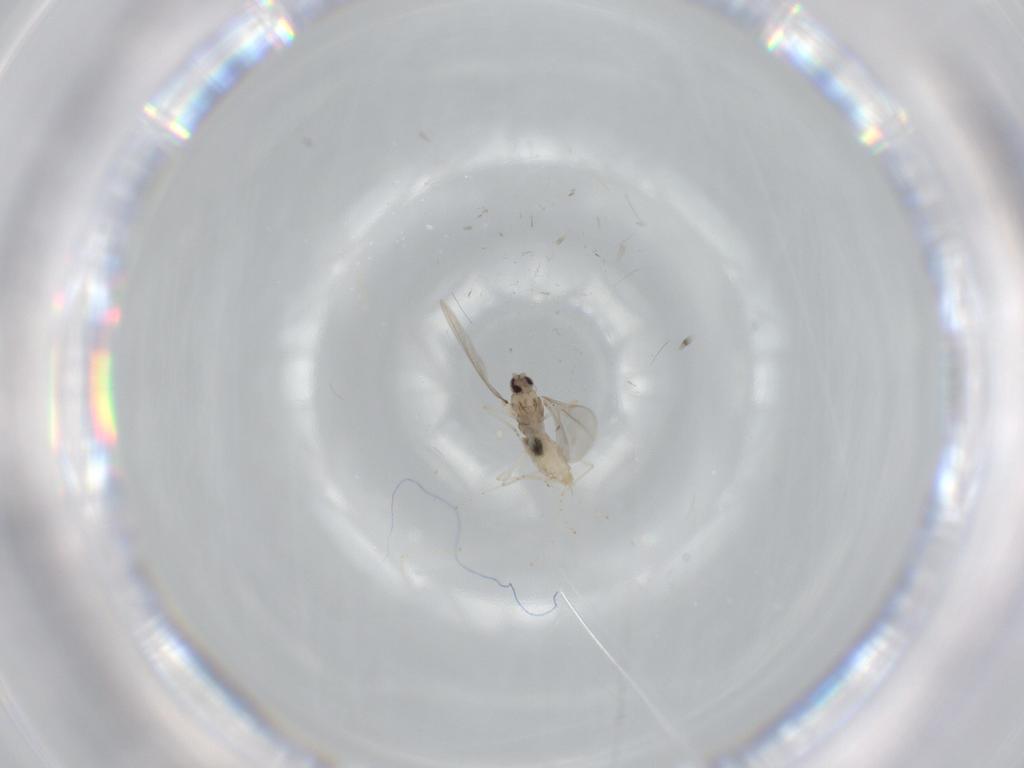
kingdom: Animalia
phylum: Arthropoda
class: Insecta
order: Diptera
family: Cecidomyiidae
